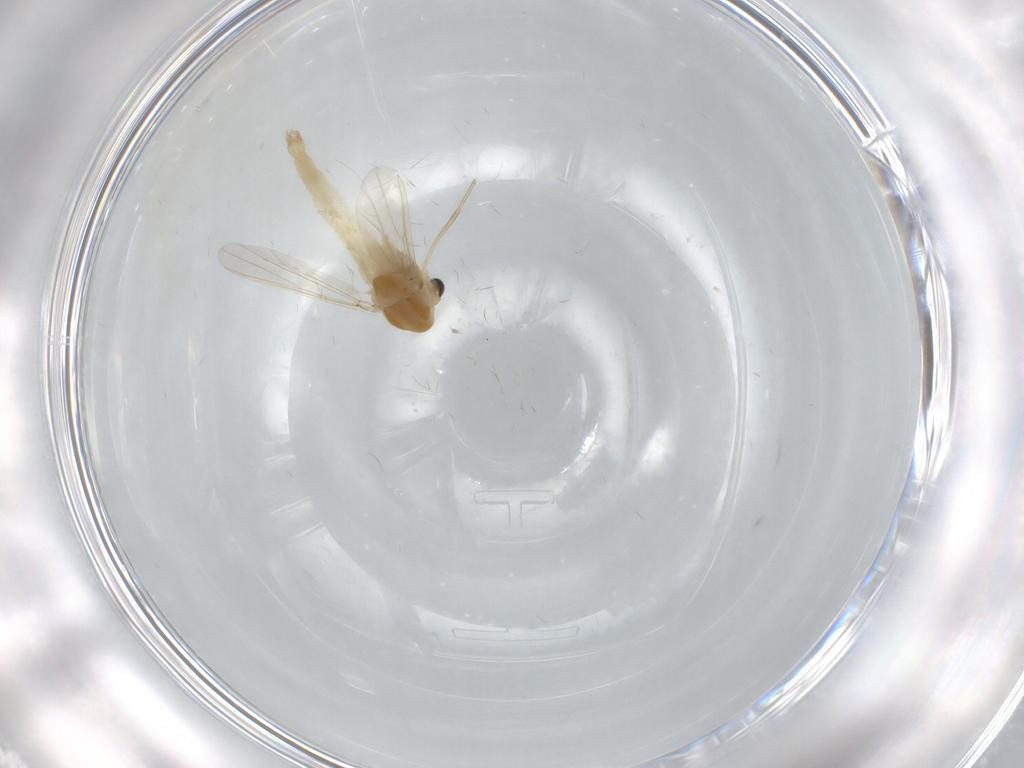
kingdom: Animalia
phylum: Arthropoda
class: Insecta
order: Diptera
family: Chironomidae
